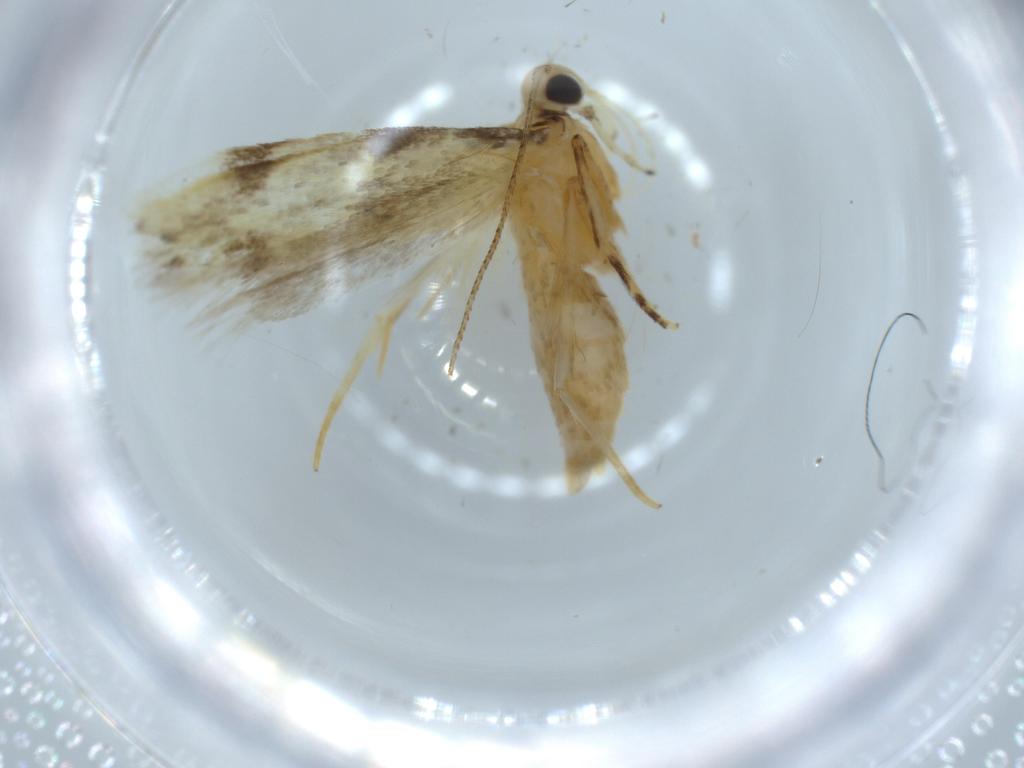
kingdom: Animalia
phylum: Arthropoda
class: Insecta
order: Lepidoptera
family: Autostichidae
